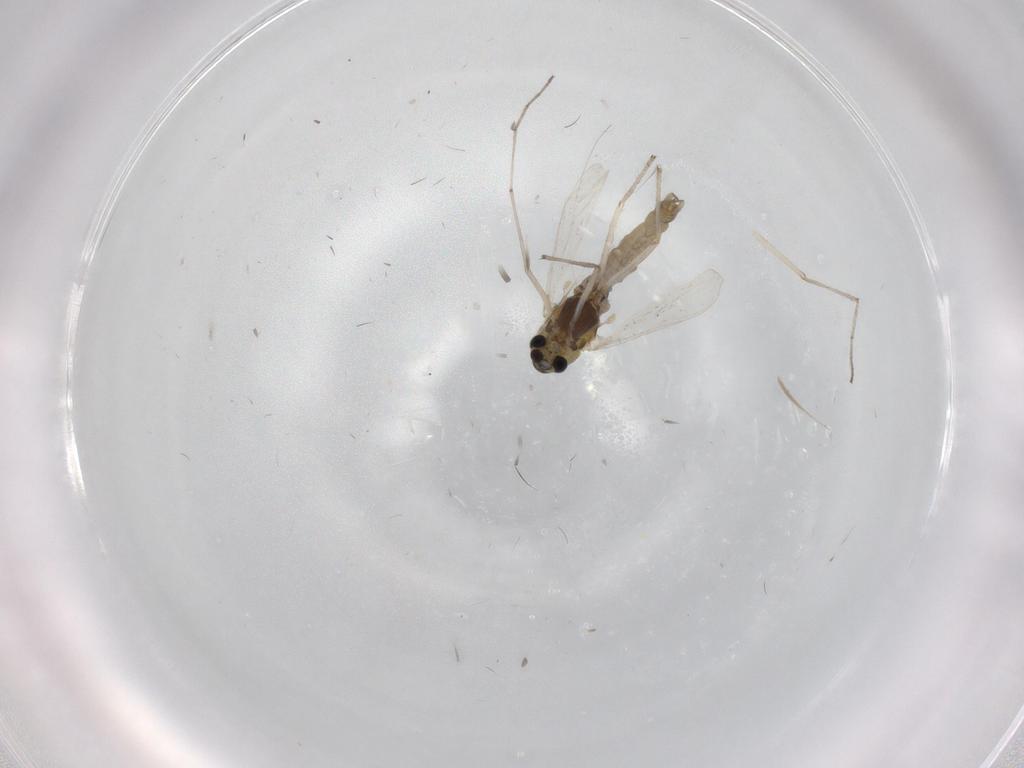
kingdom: Animalia
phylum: Arthropoda
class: Insecta
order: Diptera
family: Chironomidae
